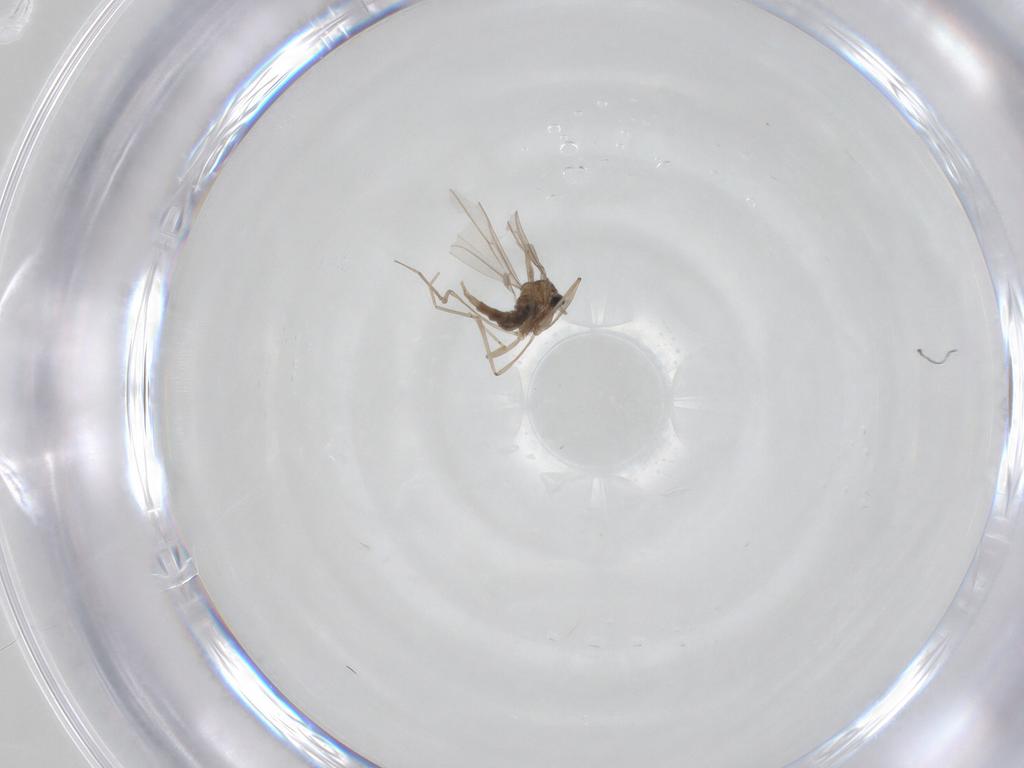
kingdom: Animalia
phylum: Arthropoda
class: Insecta
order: Diptera
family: Cecidomyiidae
